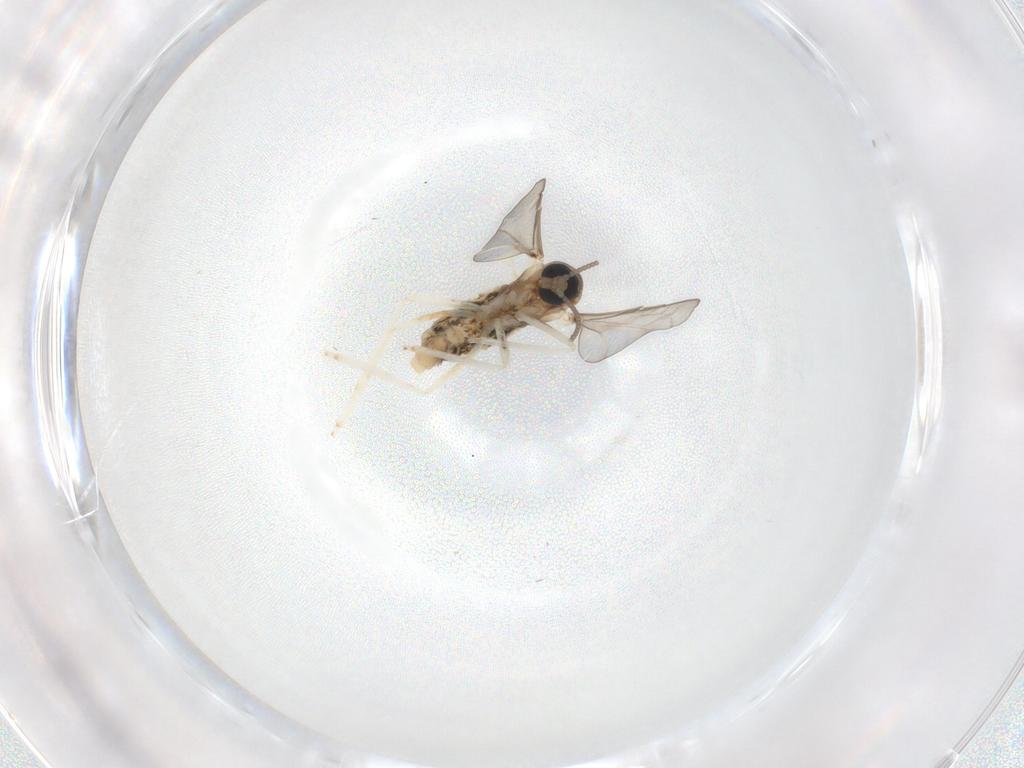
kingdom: Animalia
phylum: Arthropoda
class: Insecta
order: Diptera
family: Cecidomyiidae
